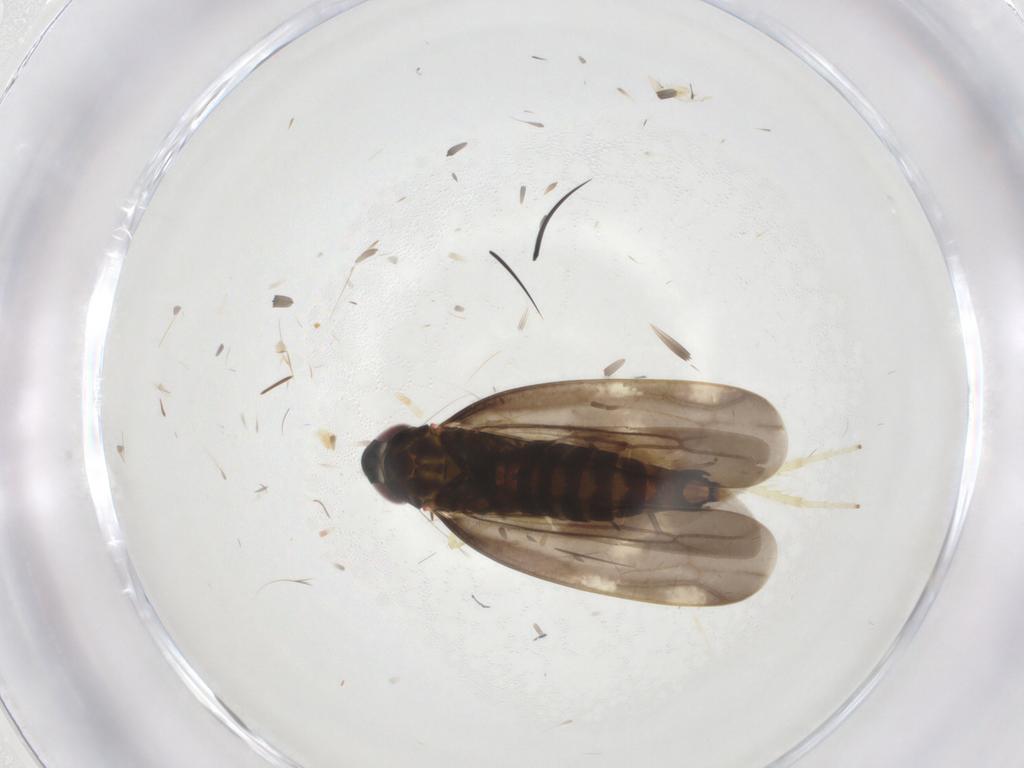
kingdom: Animalia
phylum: Arthropoda
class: Insecta
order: Hemiptera
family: Cicadellidae
